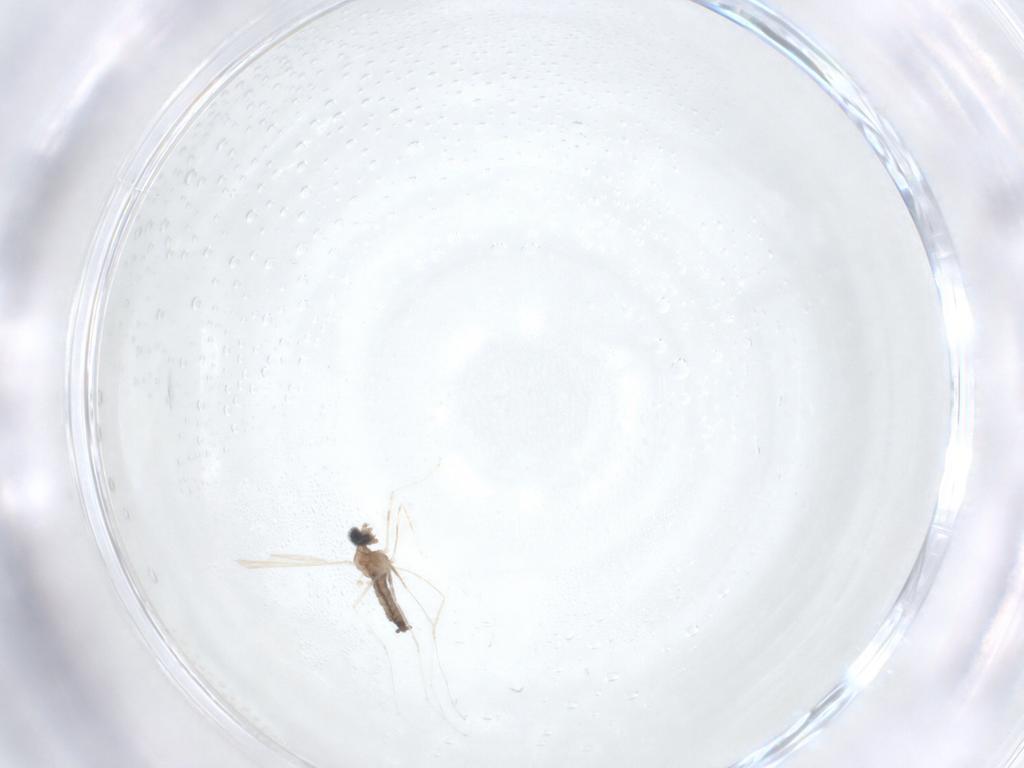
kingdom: Animalia
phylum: Arthropoda
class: Insecta
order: Diptera
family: Cecidomyiidae
